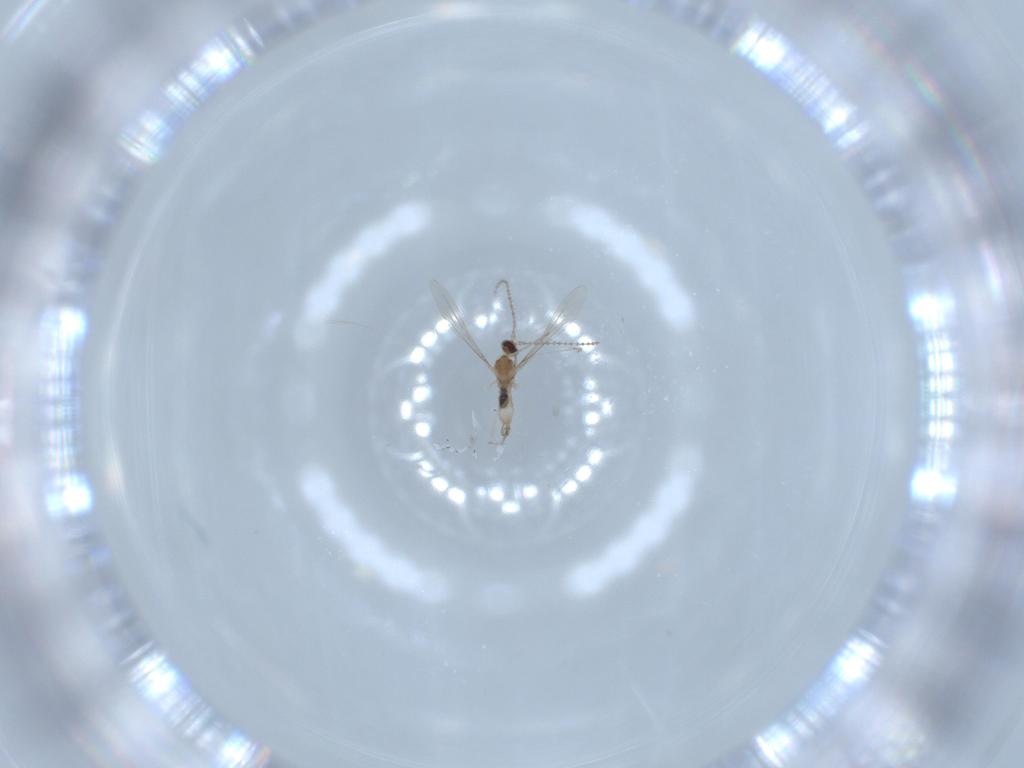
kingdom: Animalia
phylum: Arthropoda
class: Insecta
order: Diptera
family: Cecidomyiidae
